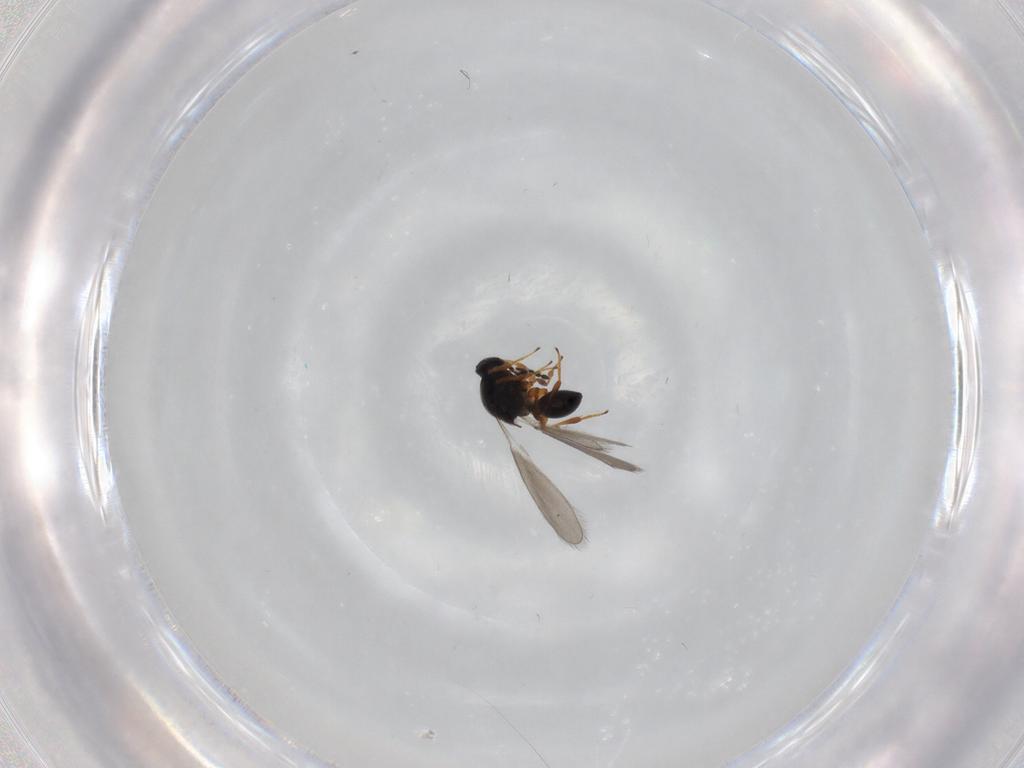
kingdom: Animalia
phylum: Arthropoda
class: Insecta
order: Hymenoptera
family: Platygastridae
